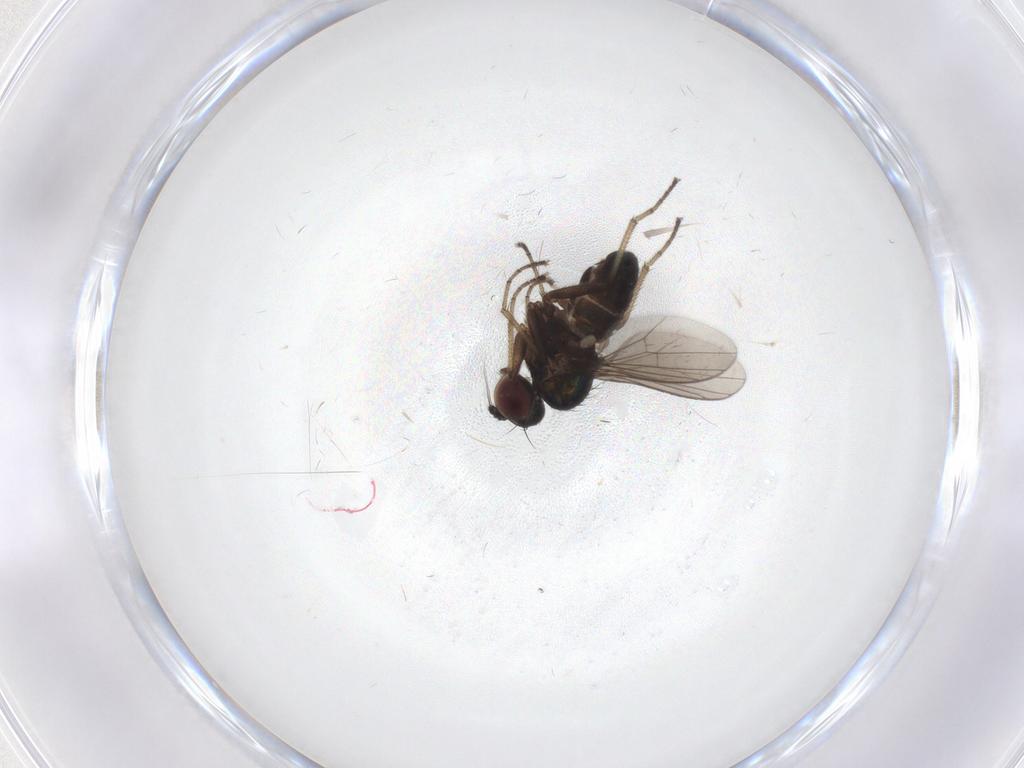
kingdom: Animalia
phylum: Arthropoda
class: Insecta
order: Diptera
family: Dolichopodidae
